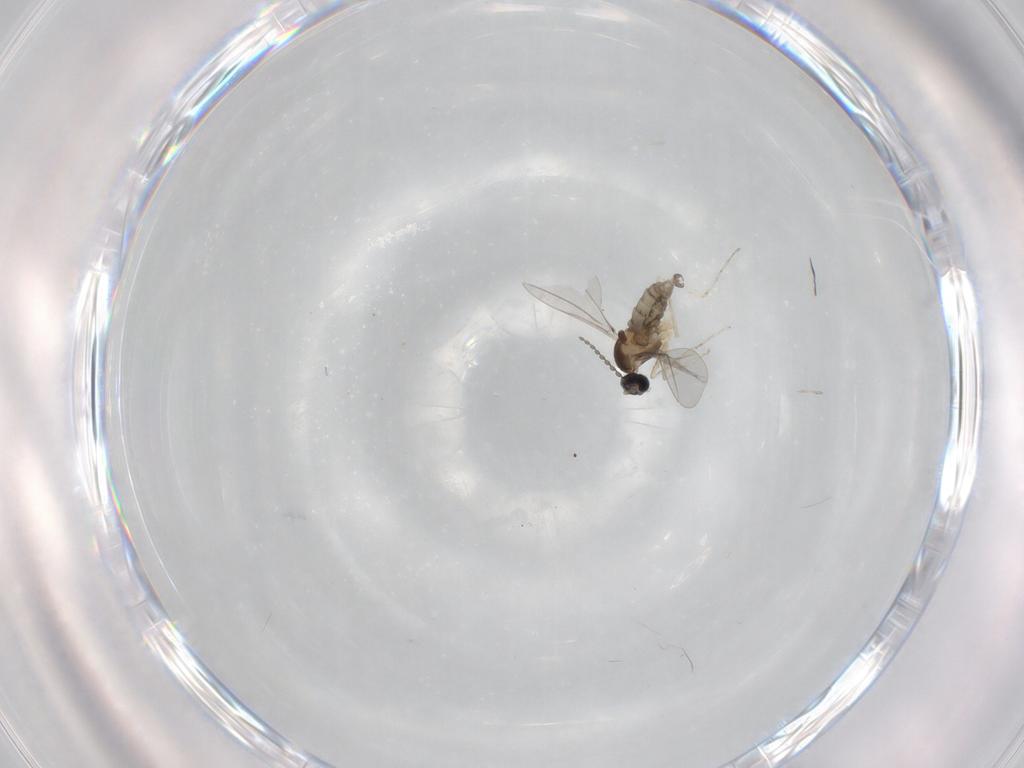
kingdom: Animalia
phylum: Arthropoda
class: Insecta
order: Diptera
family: Cecidomyiidae
